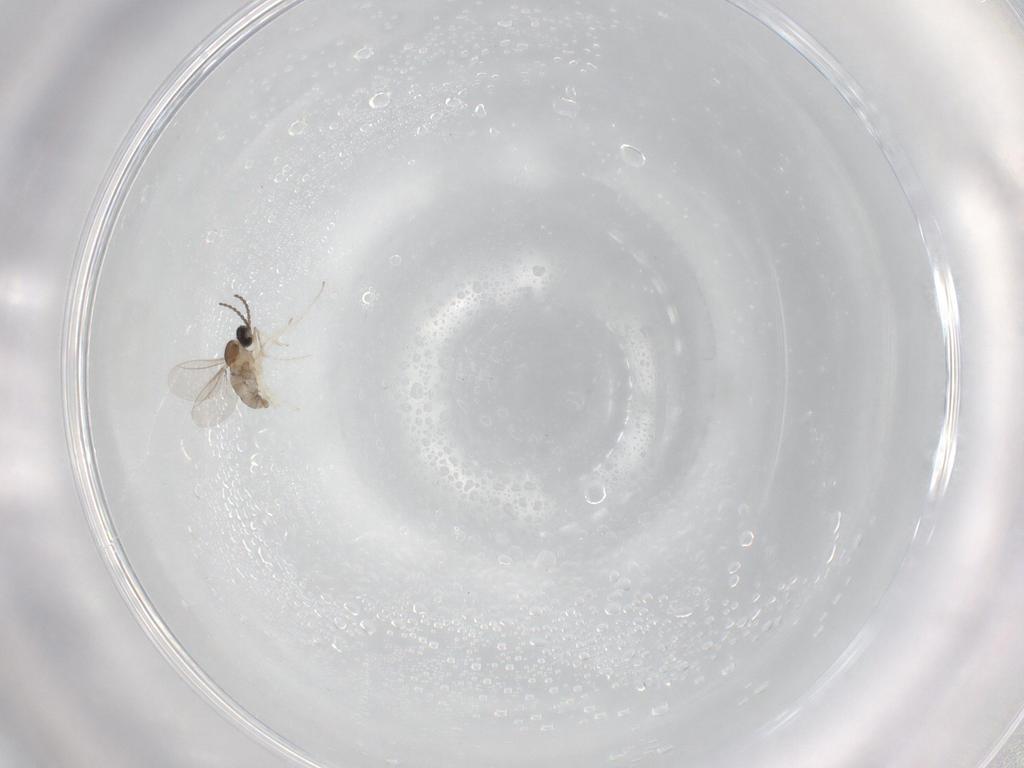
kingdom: Animalia
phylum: Arthropoda
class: Insecta
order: Diptera
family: Cecidomyiidae
